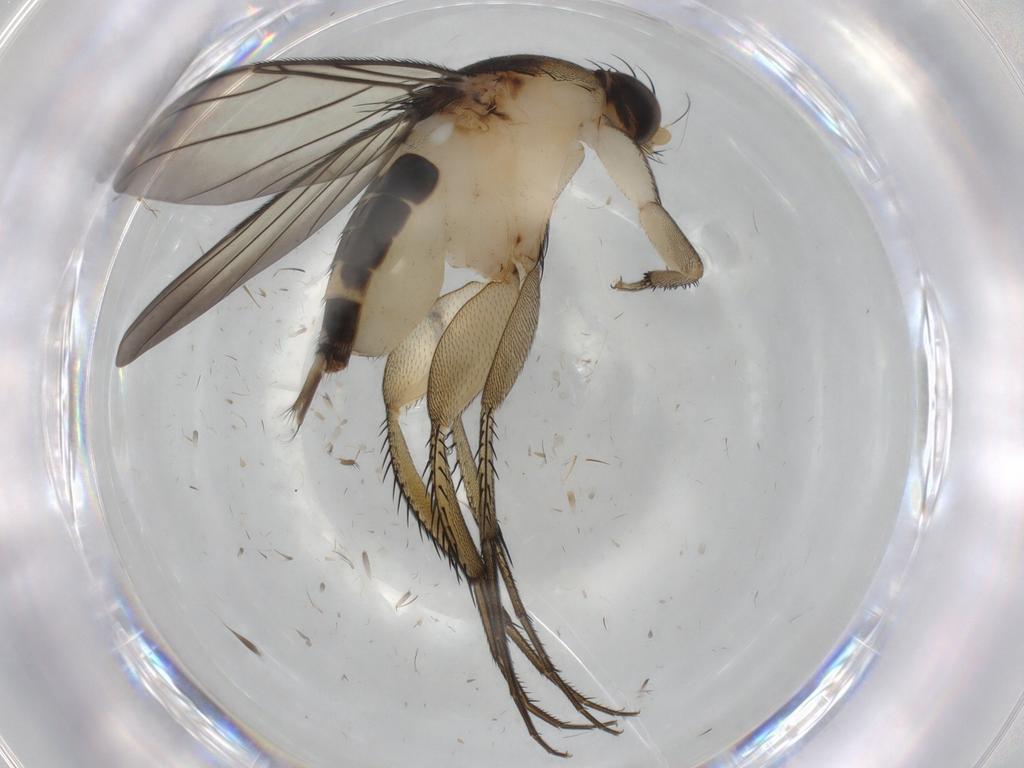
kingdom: Animalia
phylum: Arthropoda
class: Insecta
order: Diptera
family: Phoridae
